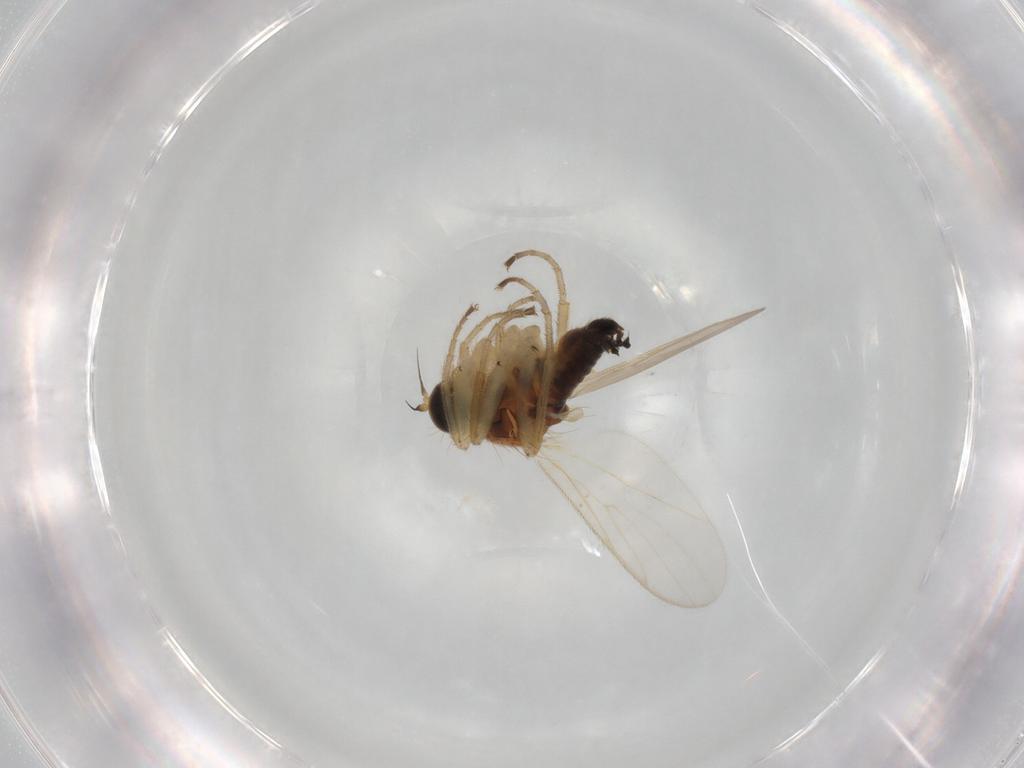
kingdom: Animalia
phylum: Arthropoda
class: Insecta
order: Diptera
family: Hybotidae
